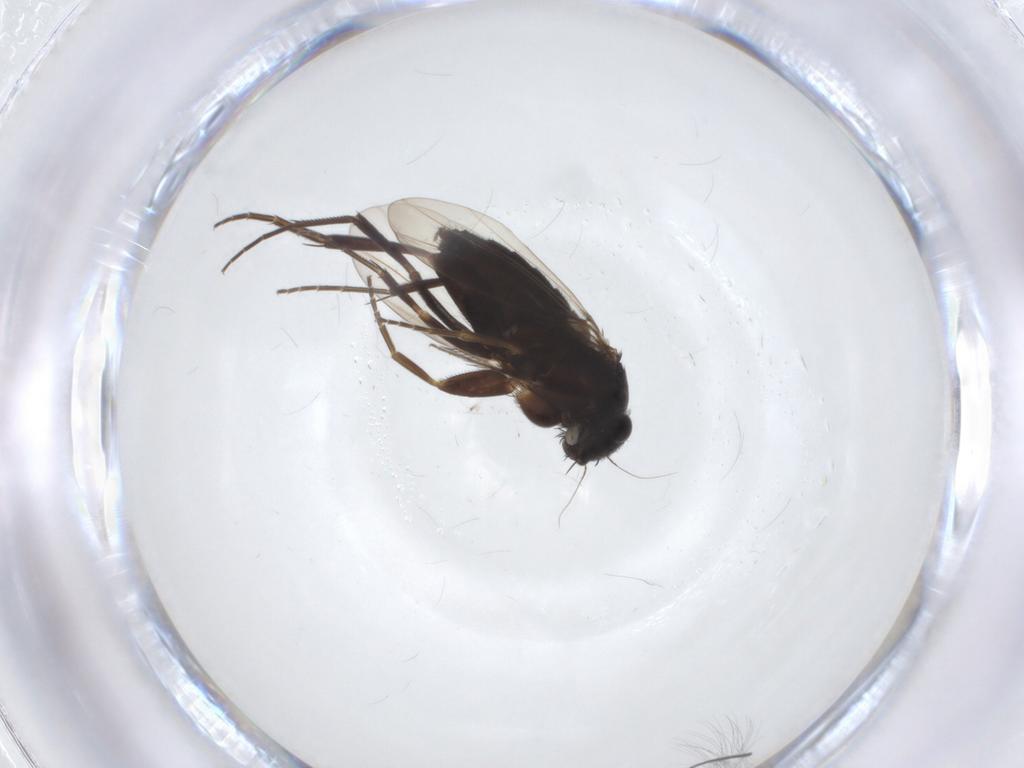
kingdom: Animalia
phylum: Arthropoda
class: Insecta
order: Diptera
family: Phoridae
